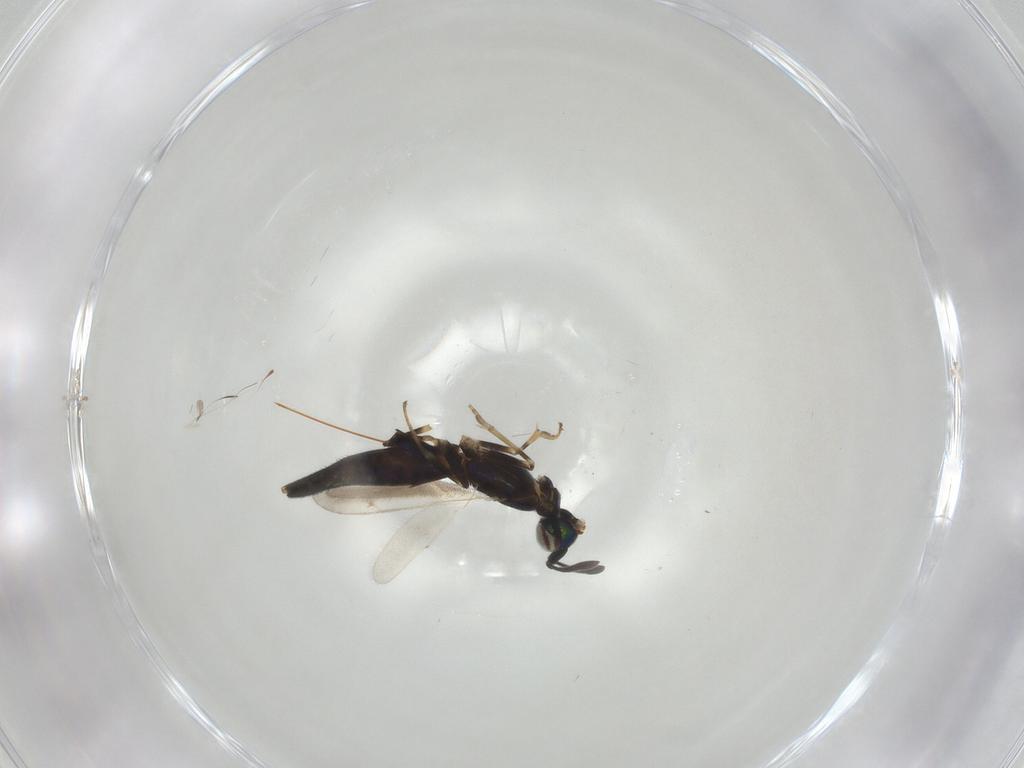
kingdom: Animalia
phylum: Arthropoda
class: Insecta
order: Hymenoptera
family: Eupelmidae
